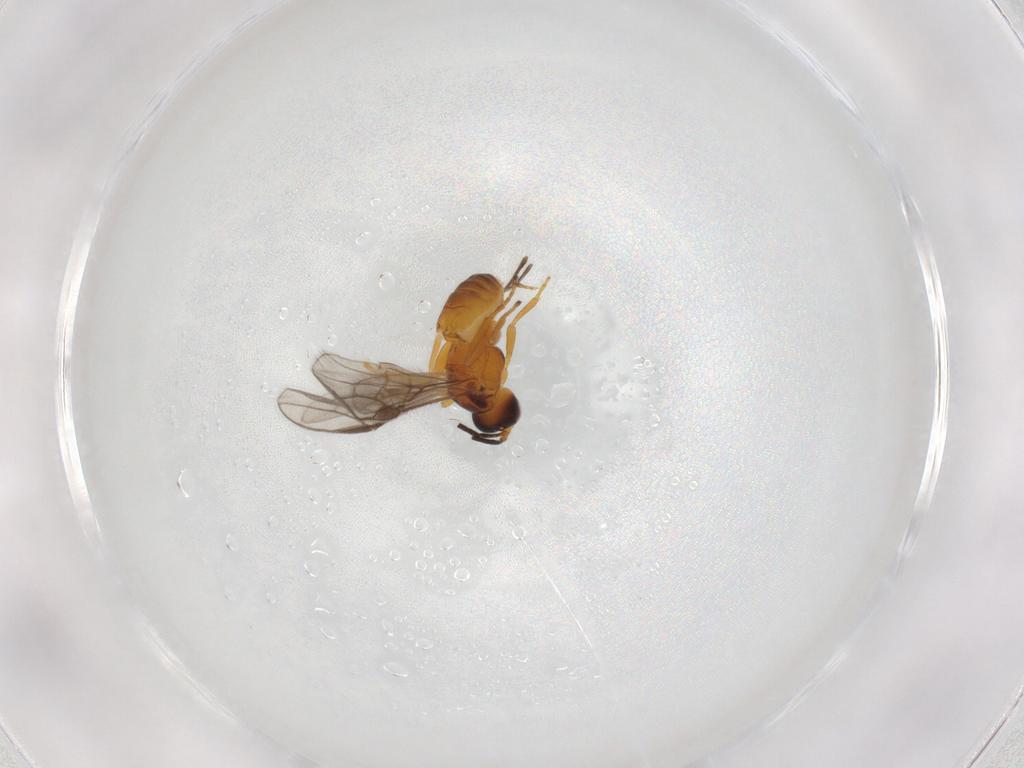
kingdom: Animalia
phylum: Arthropoda
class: Insecta
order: Hymenoptera
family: Braconidae
